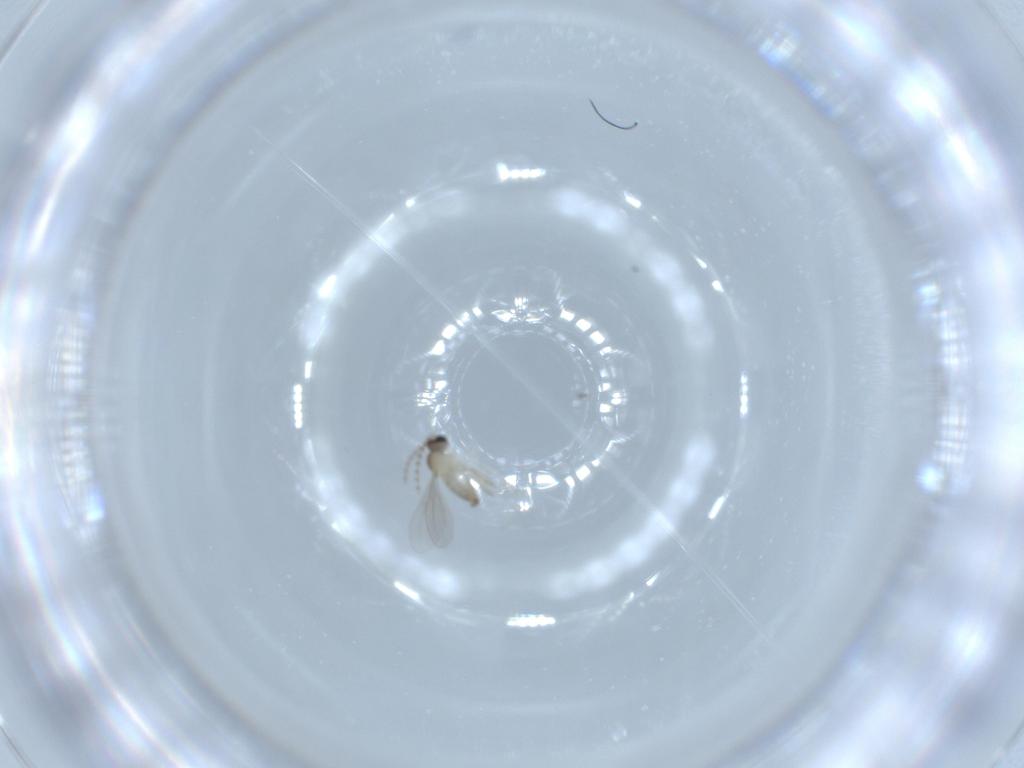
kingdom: Animalia
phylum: Arthropoda
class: Insecta
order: Diptera
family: Cecidomyiidae
